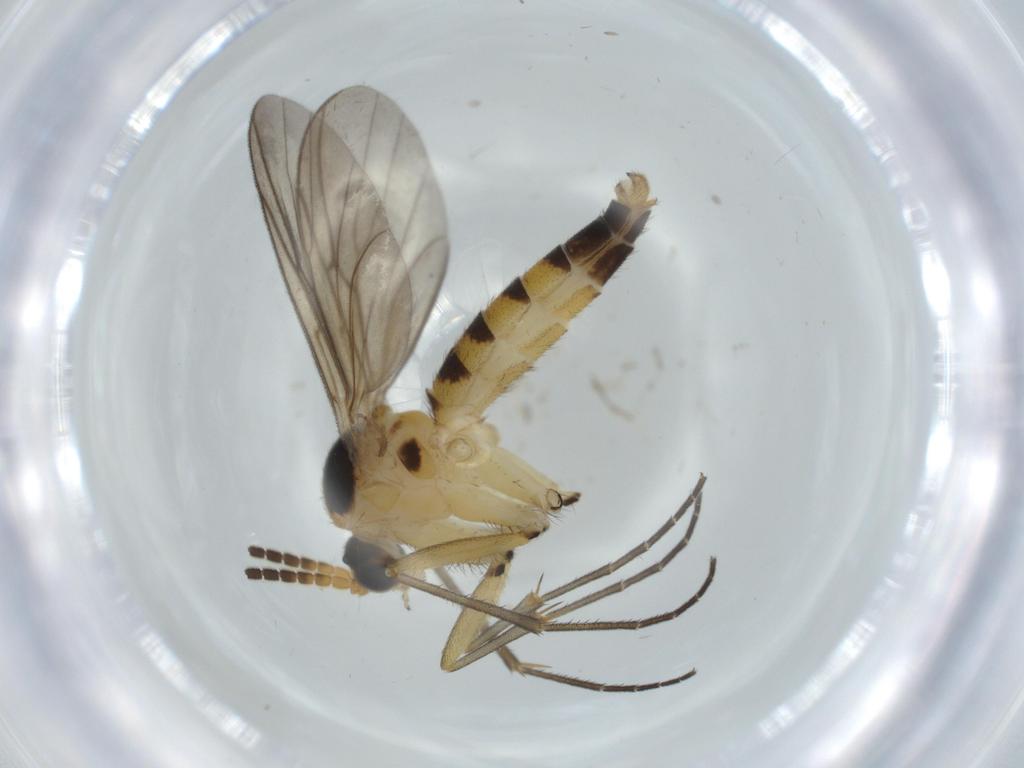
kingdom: Animalia
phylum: Arthropoda
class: Insecta
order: Diptera
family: Cecidomyiidae
